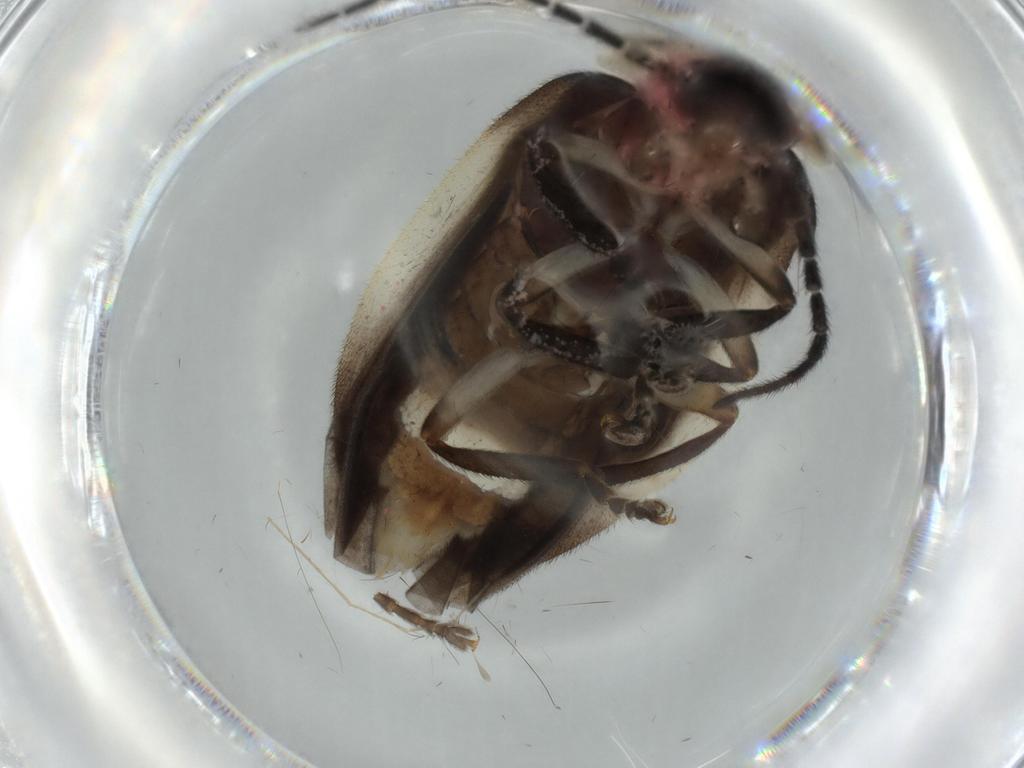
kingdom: Animalia
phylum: Arthropoda
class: Insecta
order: Coleoptera
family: Lampyridae
